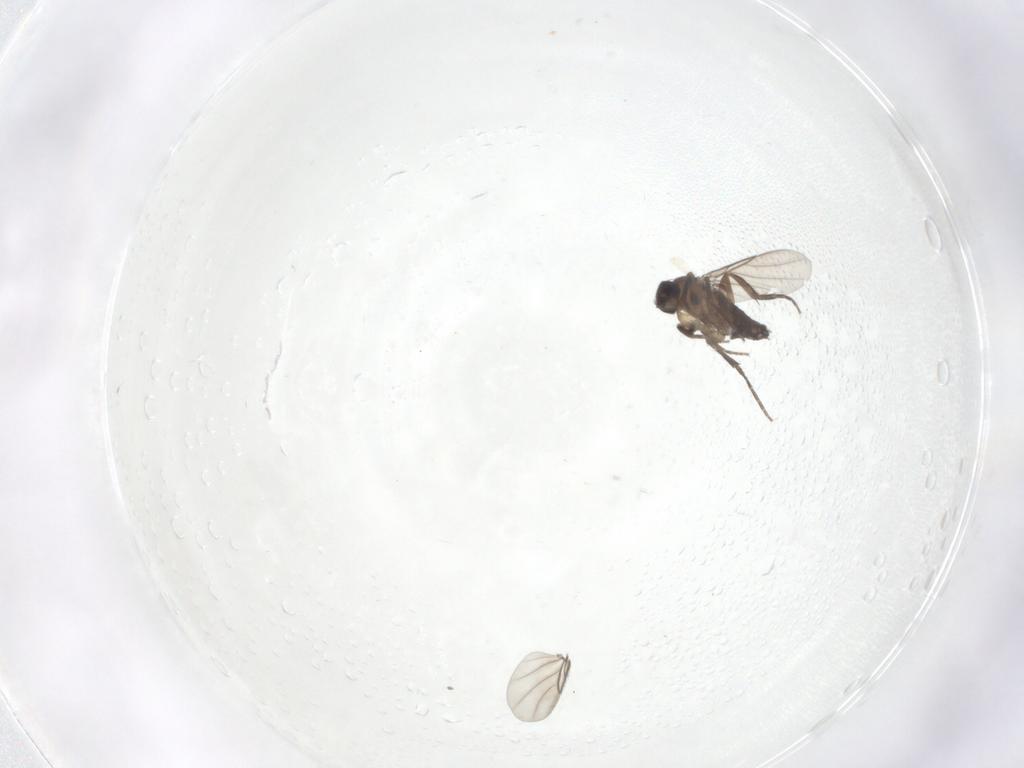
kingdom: Animalia
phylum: Arthropoda
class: Insecta
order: Diptera
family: Phoridae
